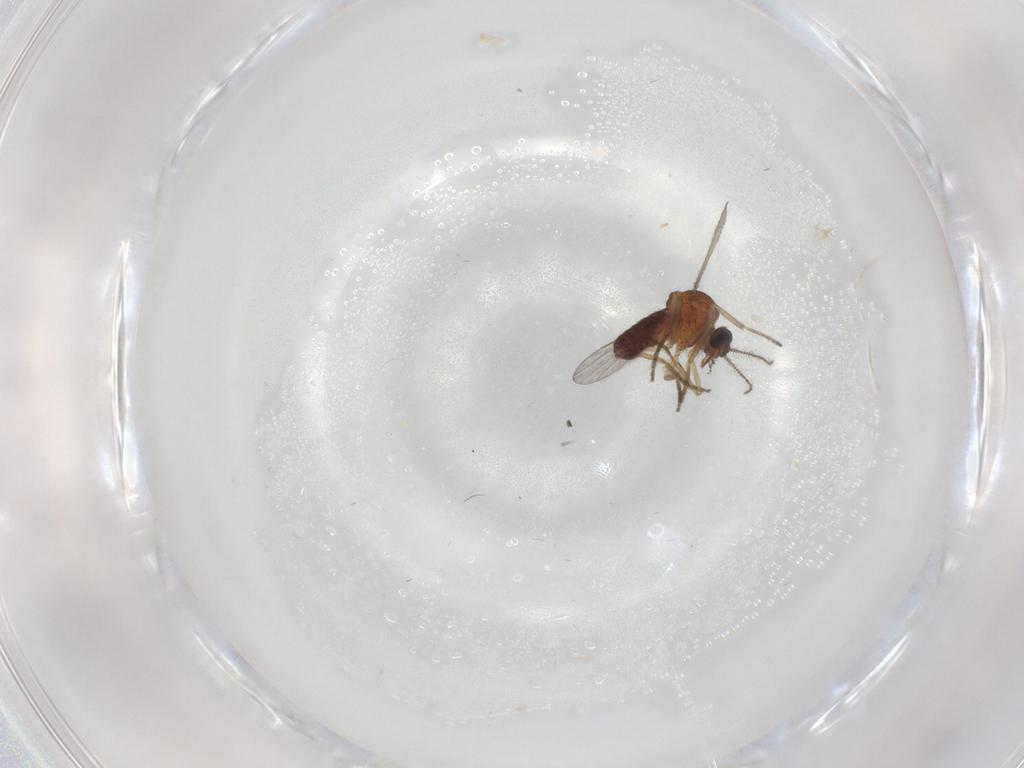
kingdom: Animalia
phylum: Arthropoda
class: Insecta
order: Diptera
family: Ceratopogonidae
